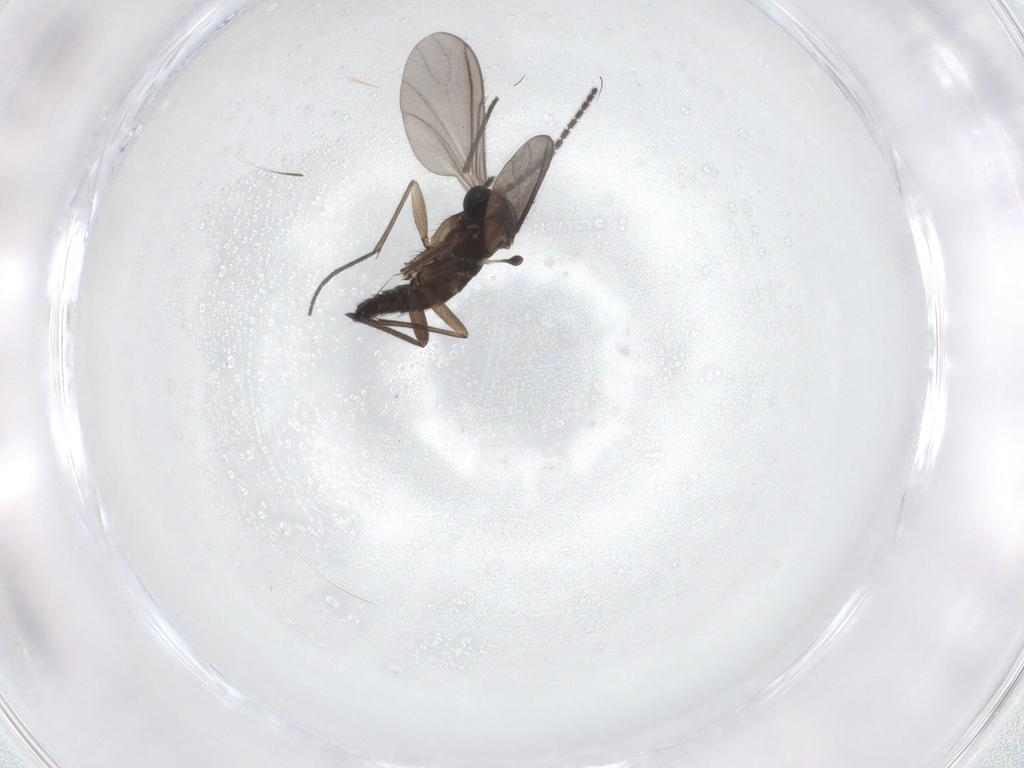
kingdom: Animalia
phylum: Arthropoda
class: Insecta
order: Diptera
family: Sciaridae
